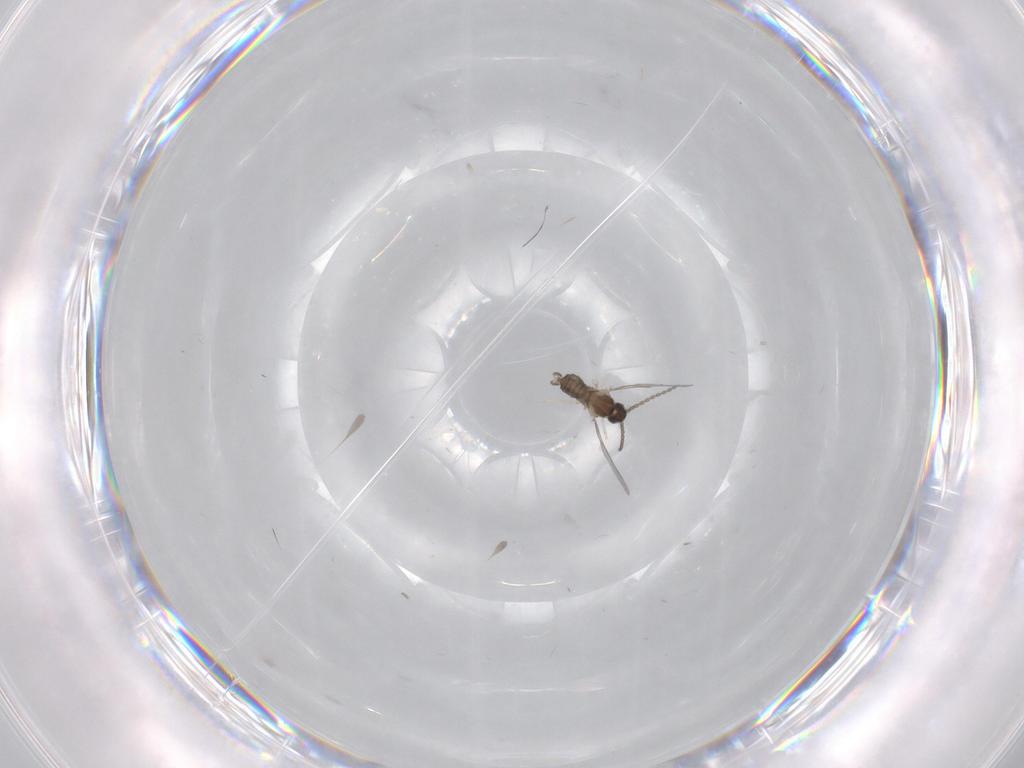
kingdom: Animalia
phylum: Arthropoda
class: Insecta
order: Diptera
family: Cecidomyiidae
